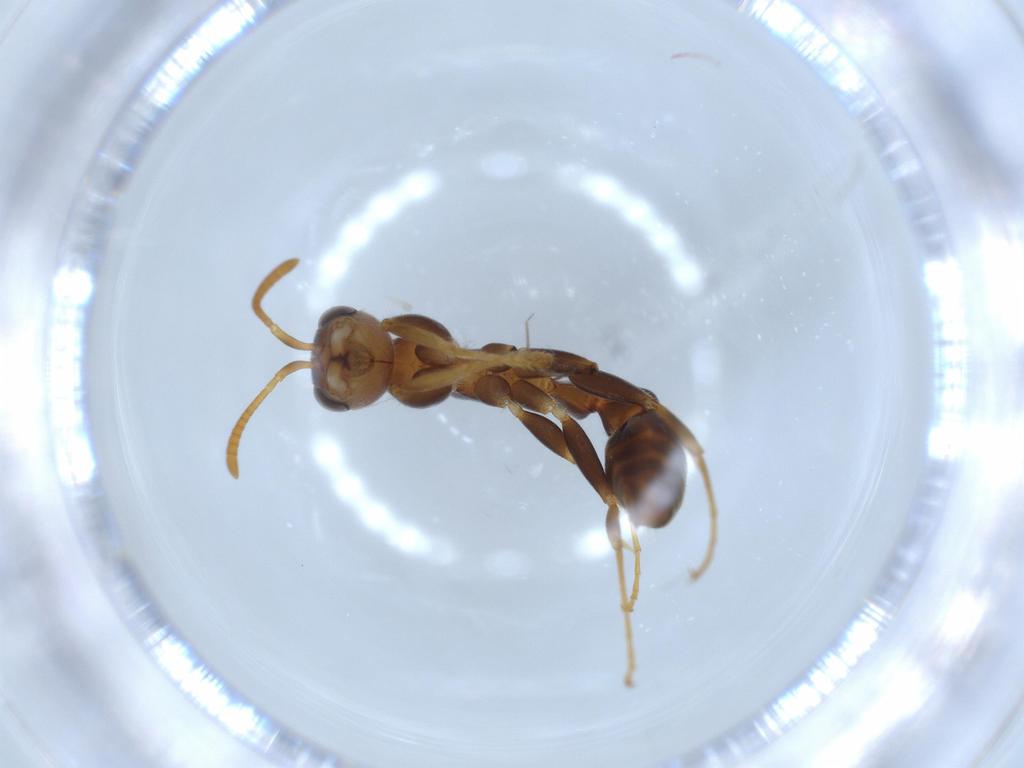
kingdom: Animalia
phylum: Arthropoda
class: Insecta
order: Hymenoptera
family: Formicidae
